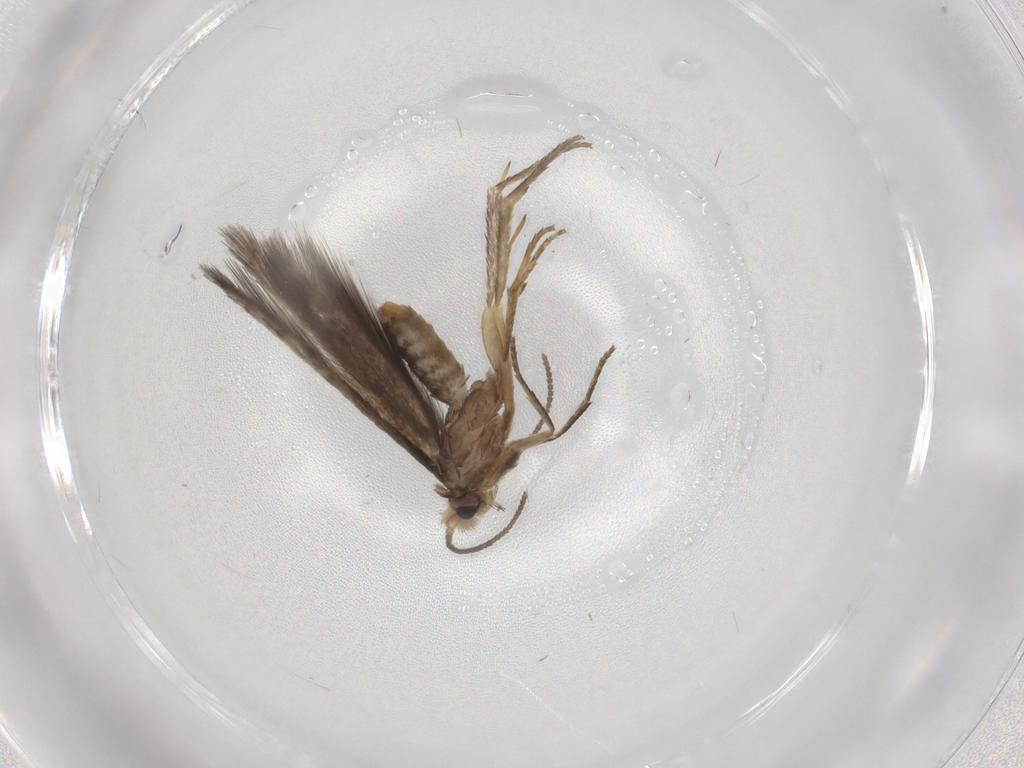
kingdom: Animalia
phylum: Arthropoda
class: Insecta
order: Lepidoptera
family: Nepticulidae
